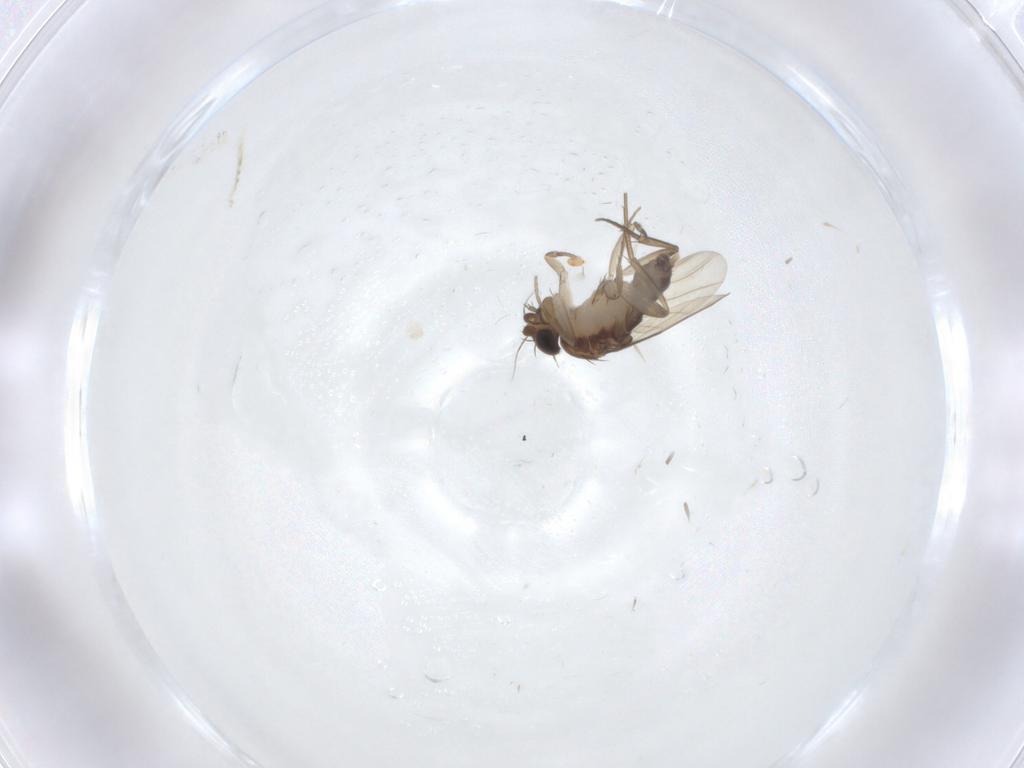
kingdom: Animalia
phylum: Arthropoda
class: Insecta
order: Diptera
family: Phoridae
